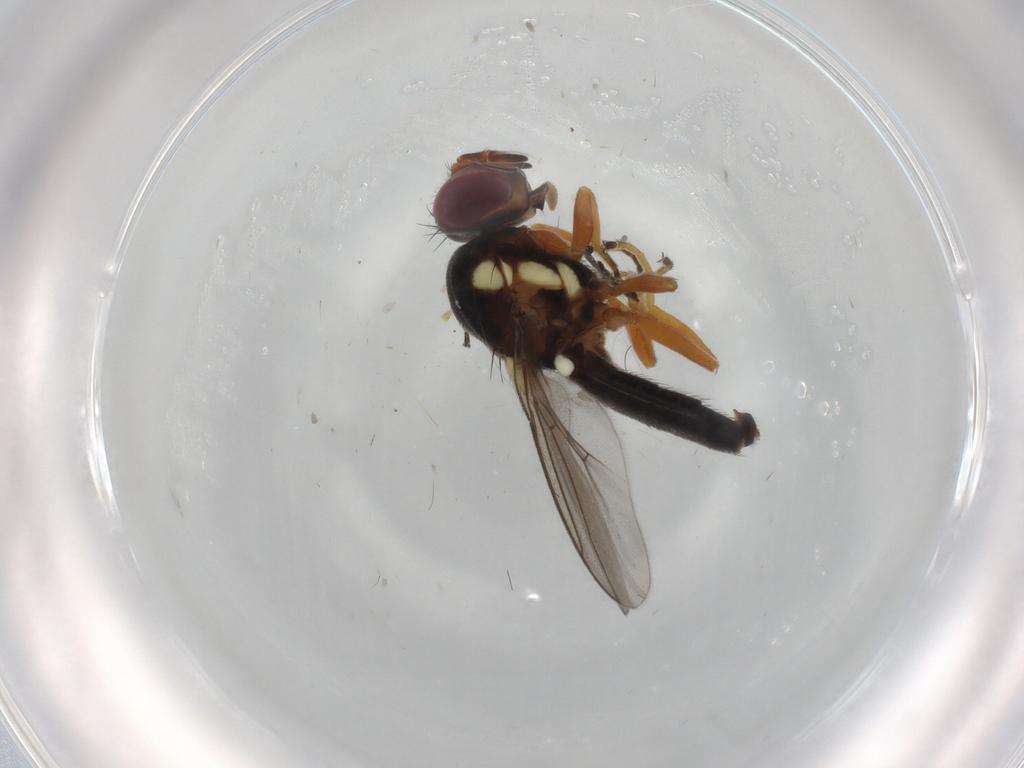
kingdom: Animalia
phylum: Arthropoda
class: Insecta
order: Diptera
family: Chloropidae
